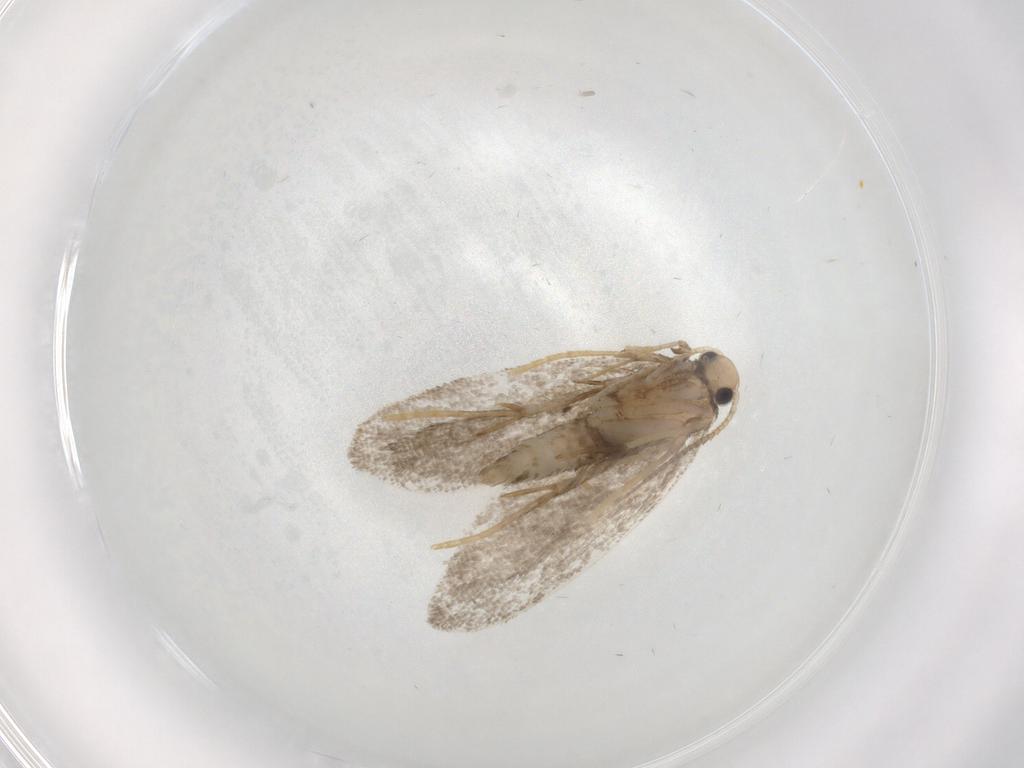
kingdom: Animalia
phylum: Arthropoda
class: Insecta
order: Lepidoptera
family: Psychidae
